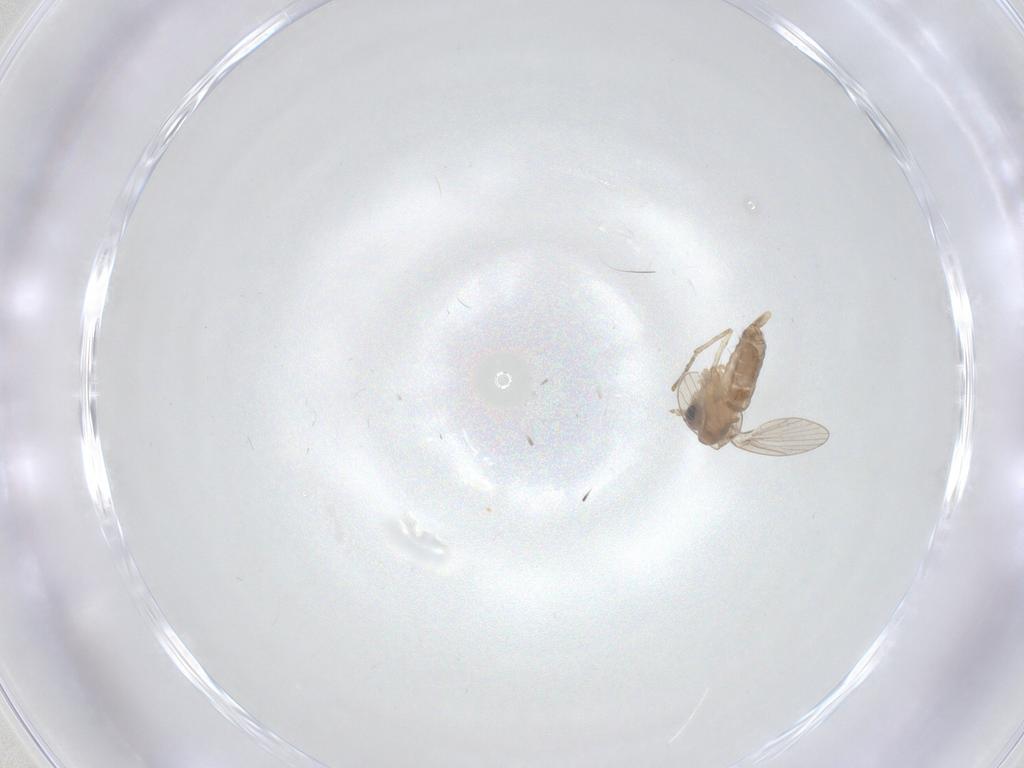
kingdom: Animalia
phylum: Arthropoda
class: Insecta
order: Diptera
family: Psychodidae
